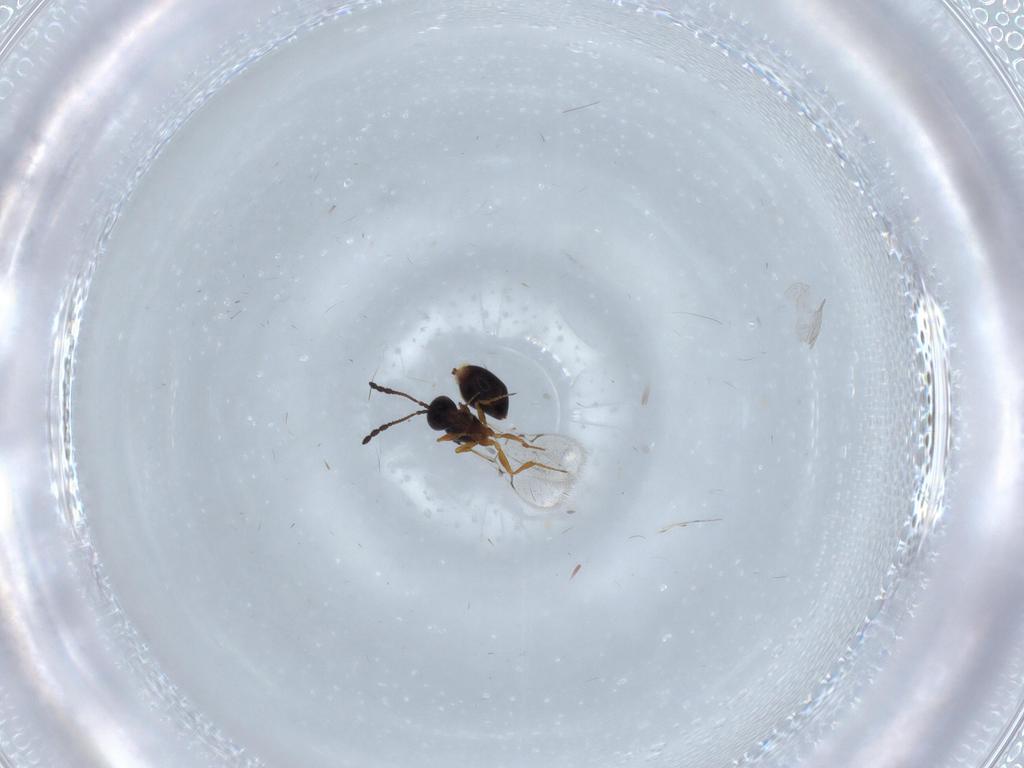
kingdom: Animalia
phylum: Arthropoda
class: Insecta
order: Hymenoptera
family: Figitidae
